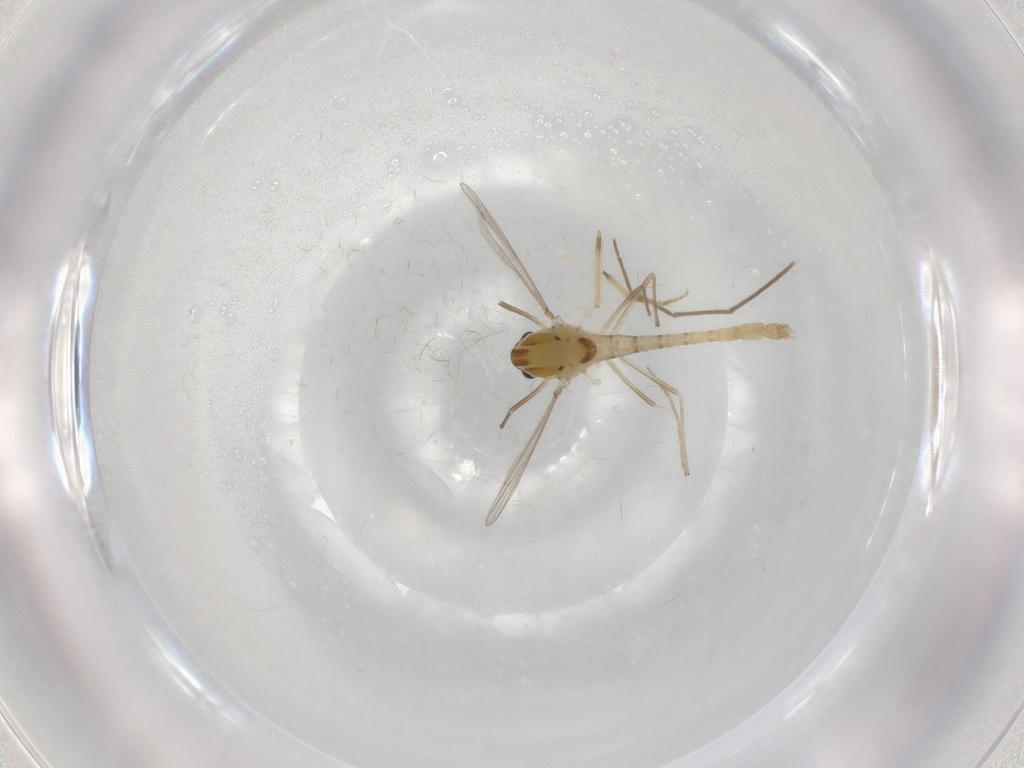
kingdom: Animalia
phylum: Arthropoda
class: Insecta
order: Diptera
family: Chironomidae
